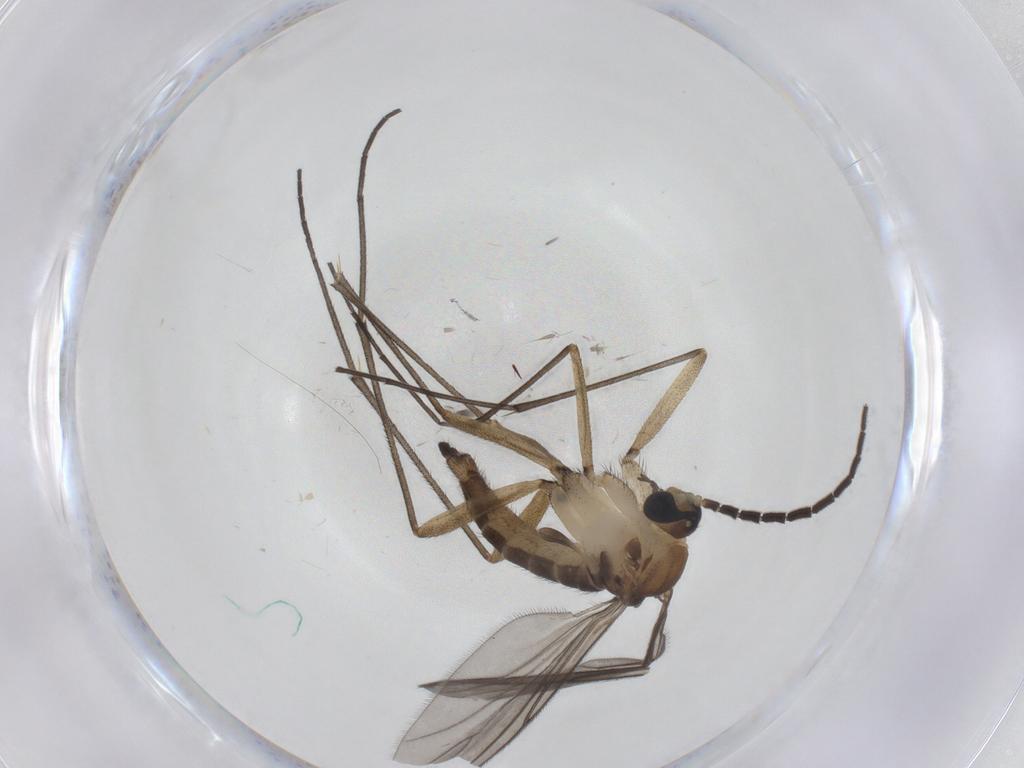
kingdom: Animalia
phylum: Arthropoda
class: Insecta
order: Diptera
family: Sciaridae
